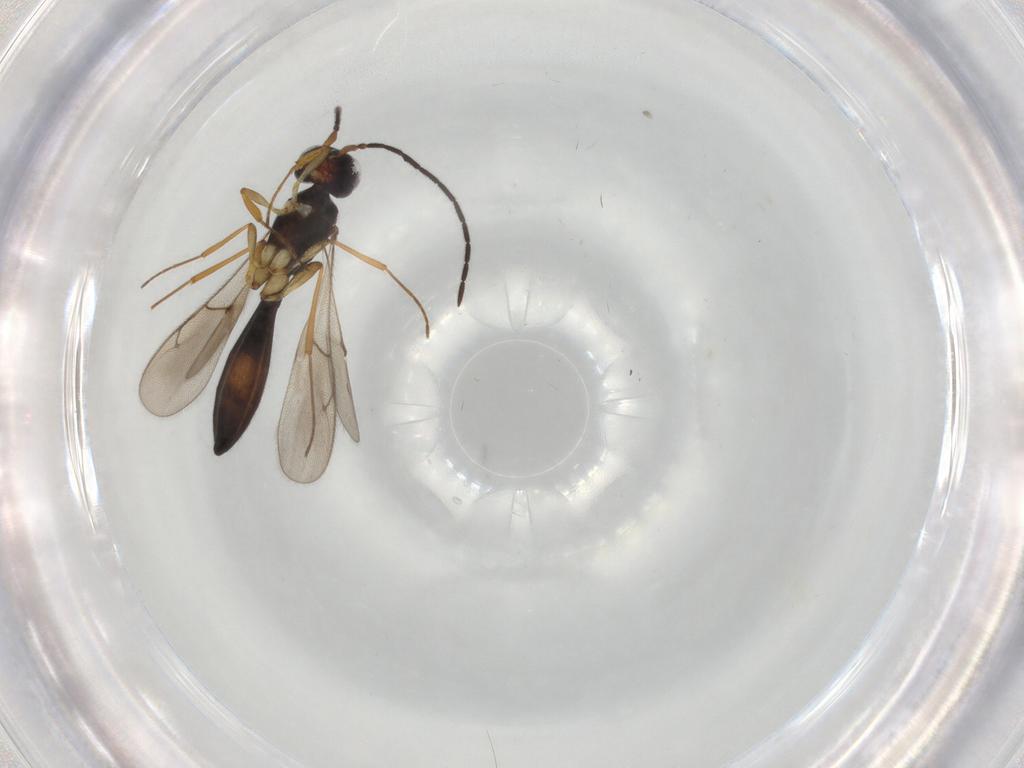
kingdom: Animalia
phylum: Arthropoda
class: Insecta
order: Hymenoptera
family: Scelionidae
